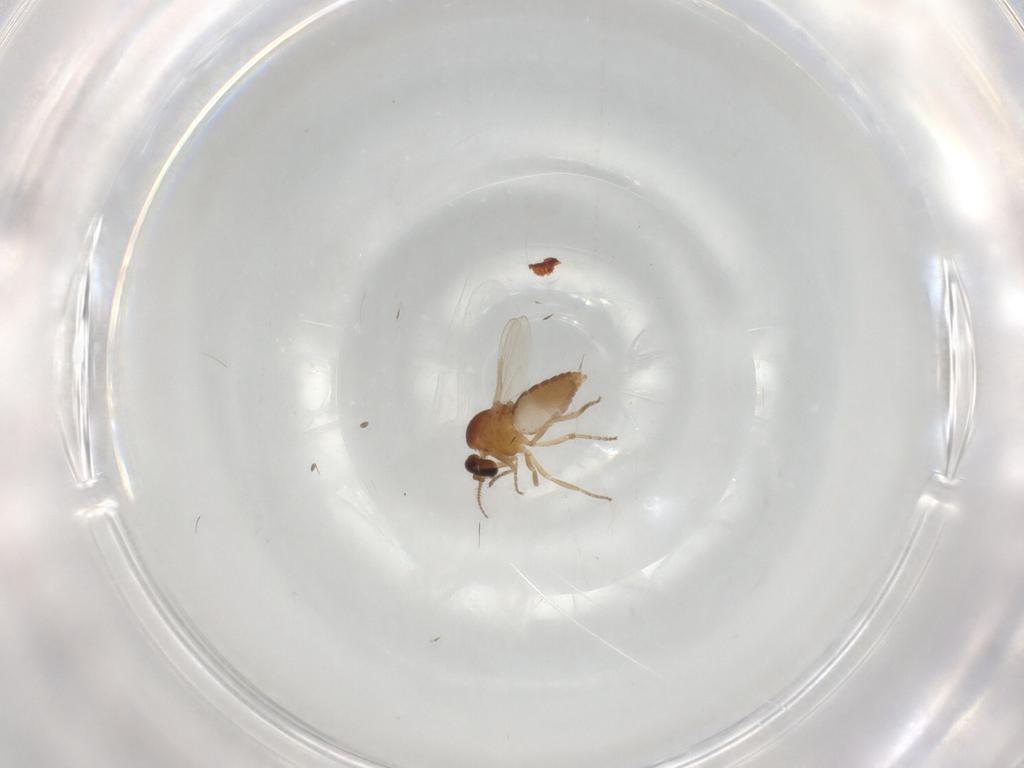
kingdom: Animalia
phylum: Arthropoda
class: Insecta
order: Diptera
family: Ceratopogonidae
